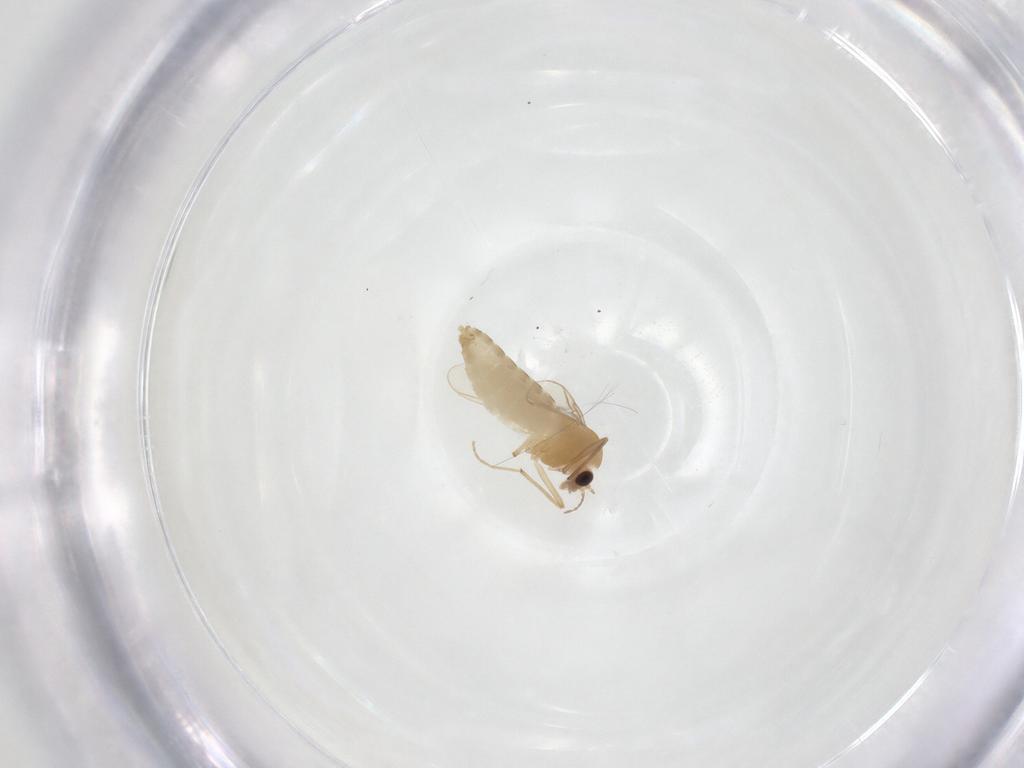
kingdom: Animalia
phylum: Arthropoda
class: Insecta
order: Diptera
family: Chironomidae
